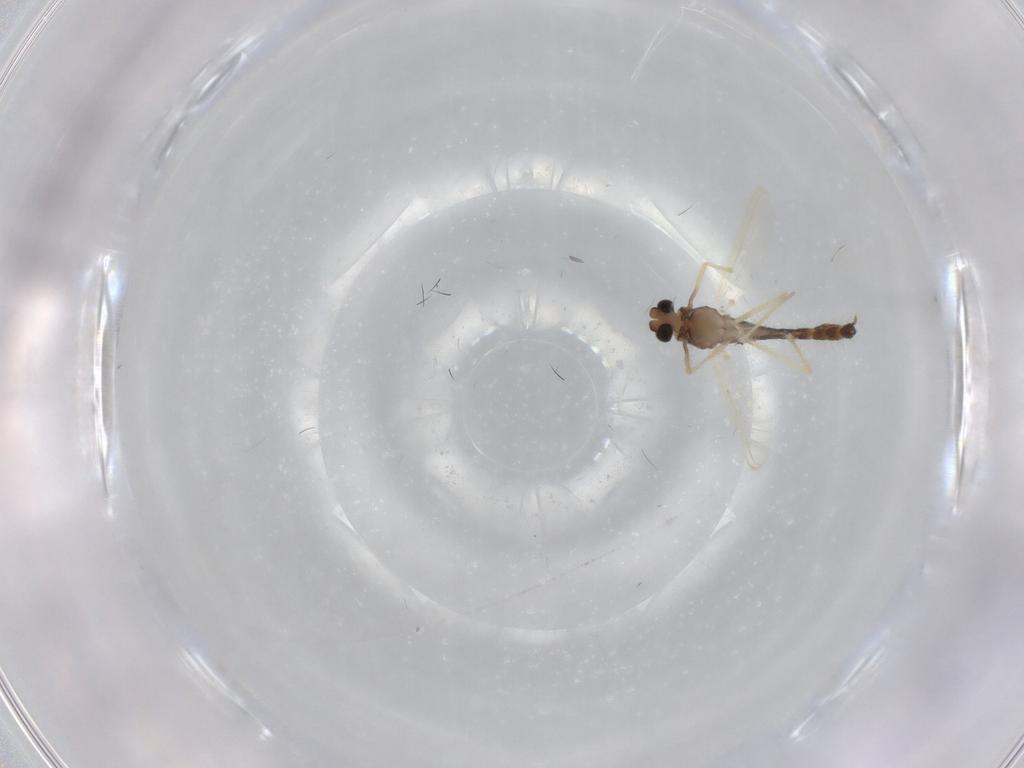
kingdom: Animalia
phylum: Arthropoda
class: Insecta
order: Diptera
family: Chironomidae
